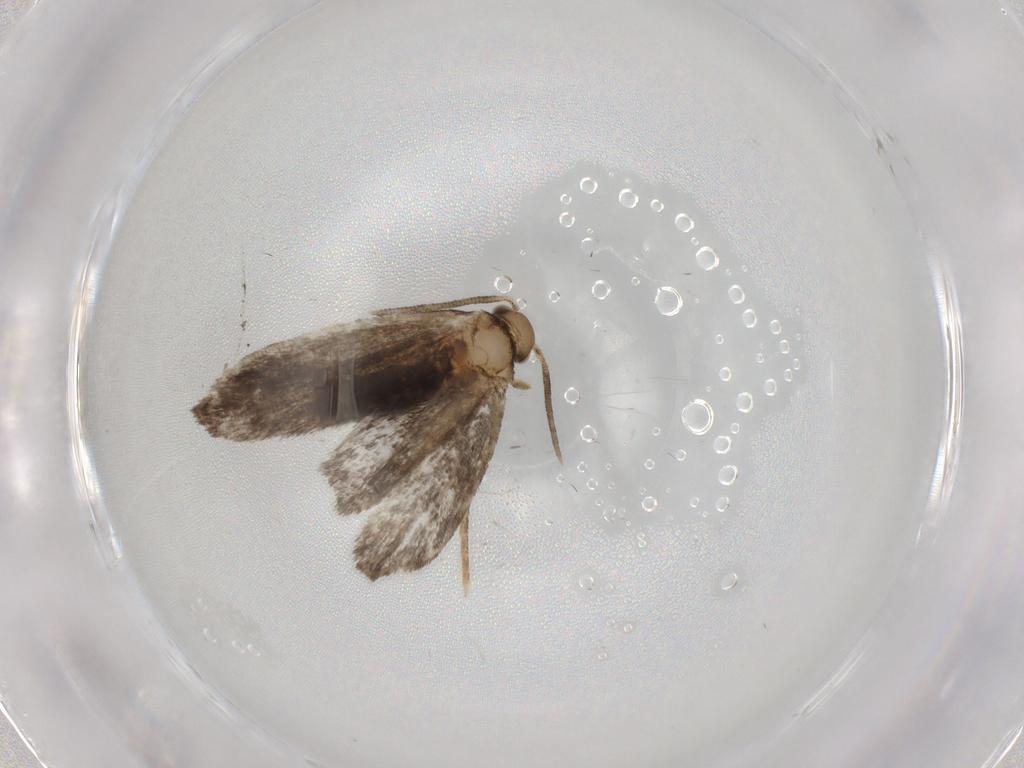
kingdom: Animalia
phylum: Arthropoda
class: Insecta
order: Lepidoptera
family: Dryadaulidae
